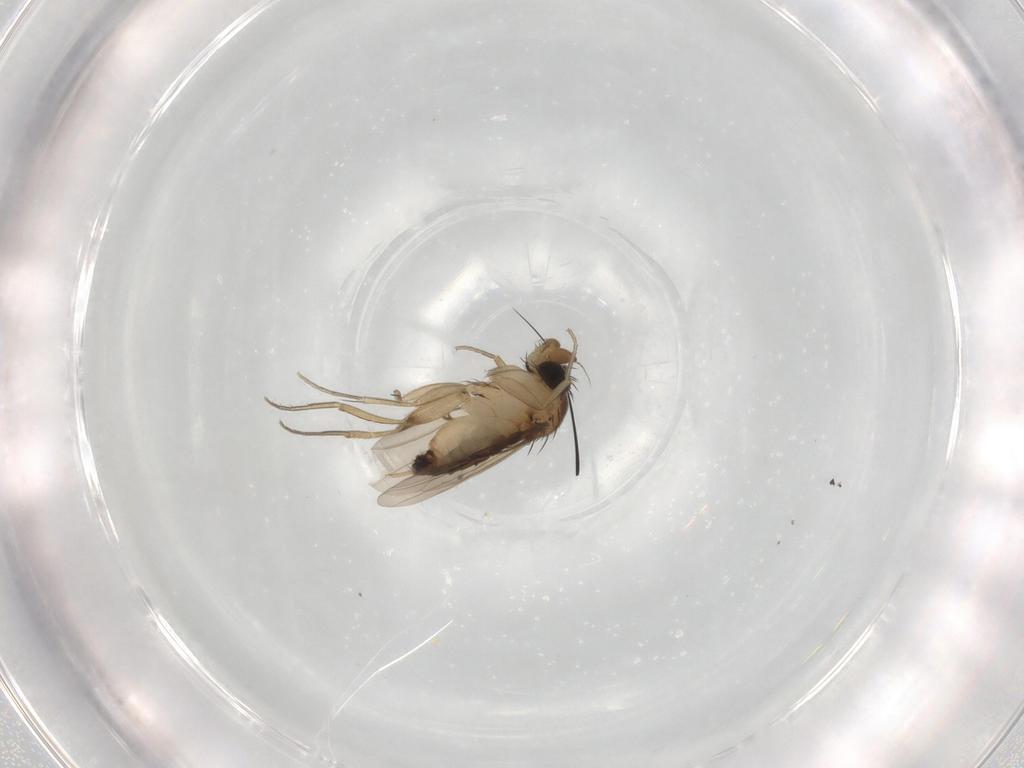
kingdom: Animalia
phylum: Arthropoda
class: Insecta
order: Diptera
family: Phoridae
